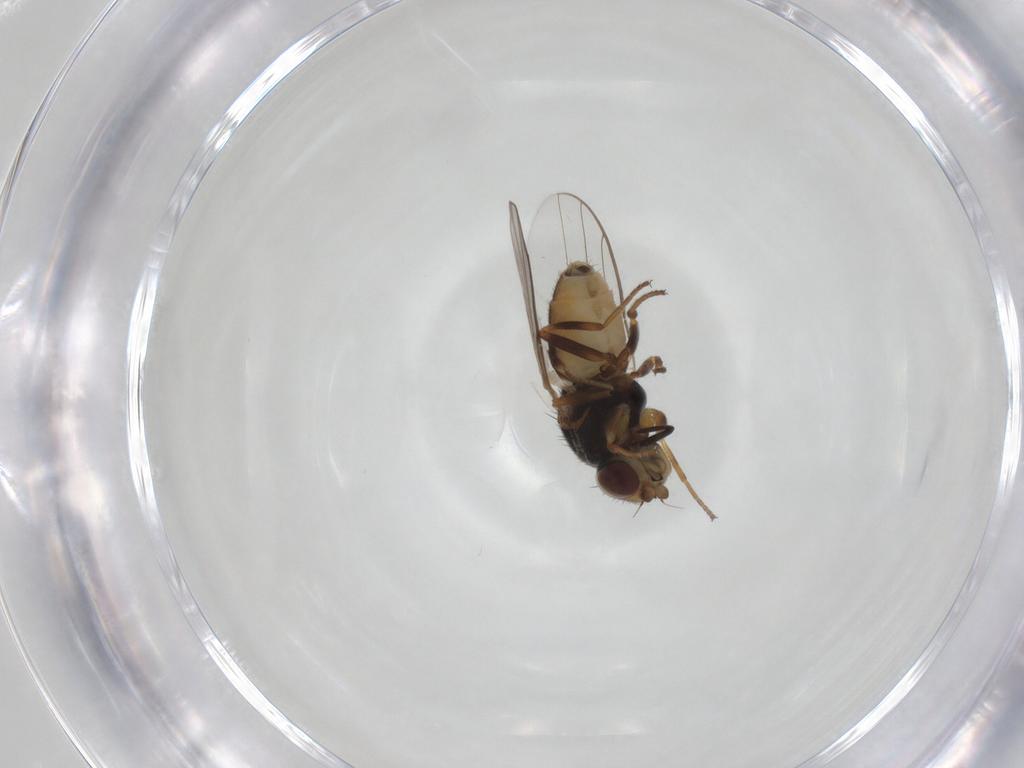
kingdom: Animalia
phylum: Arthropoda
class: Insecta
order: Diptera
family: Chloropidae
